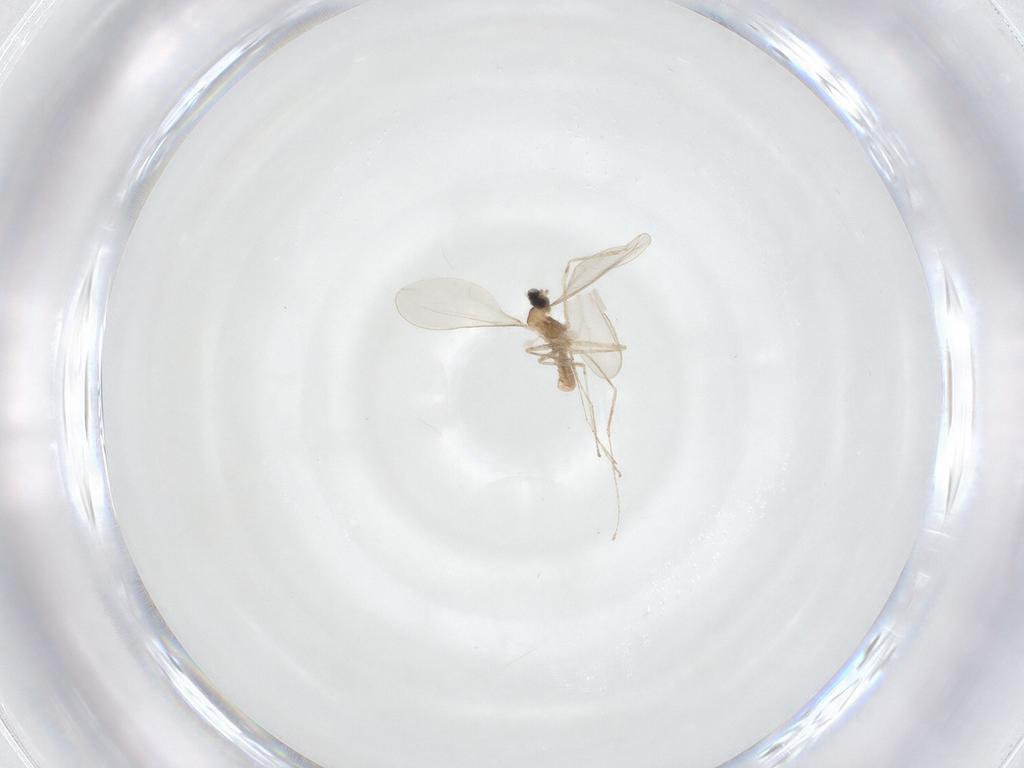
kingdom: Animalia
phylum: Arthropoda
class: Insecta
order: Diptera
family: Cecidomyiidae
